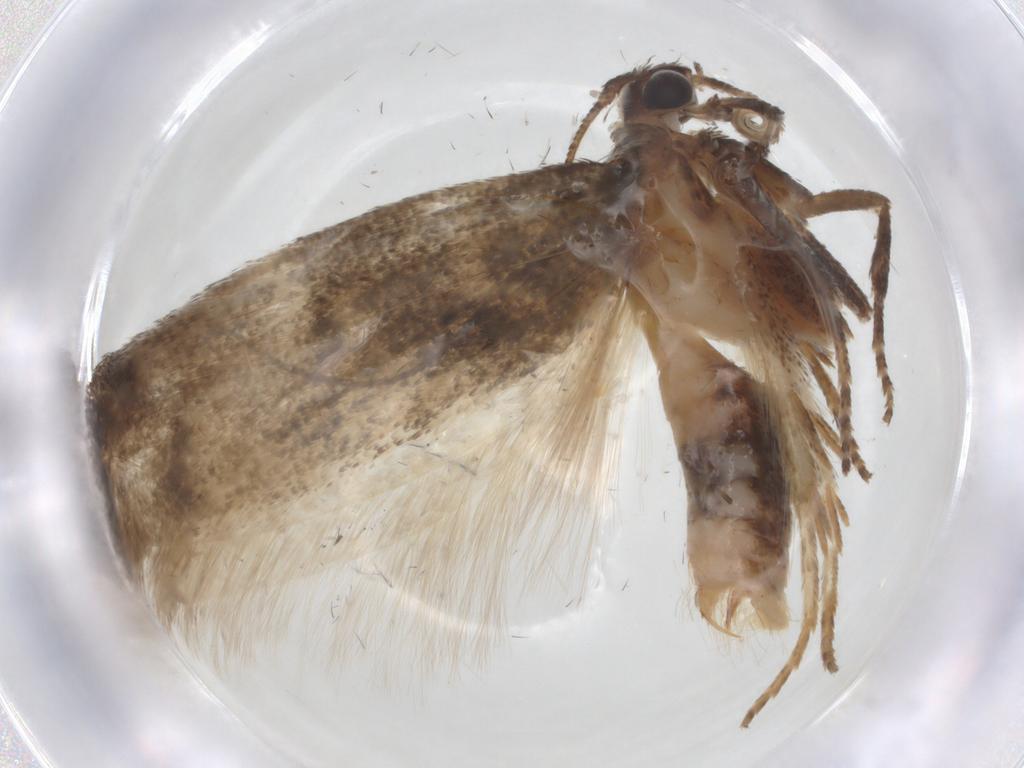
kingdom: Animalia
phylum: Arthropoda
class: Insecta
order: Lepidoptera
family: Cosmopterigidae
